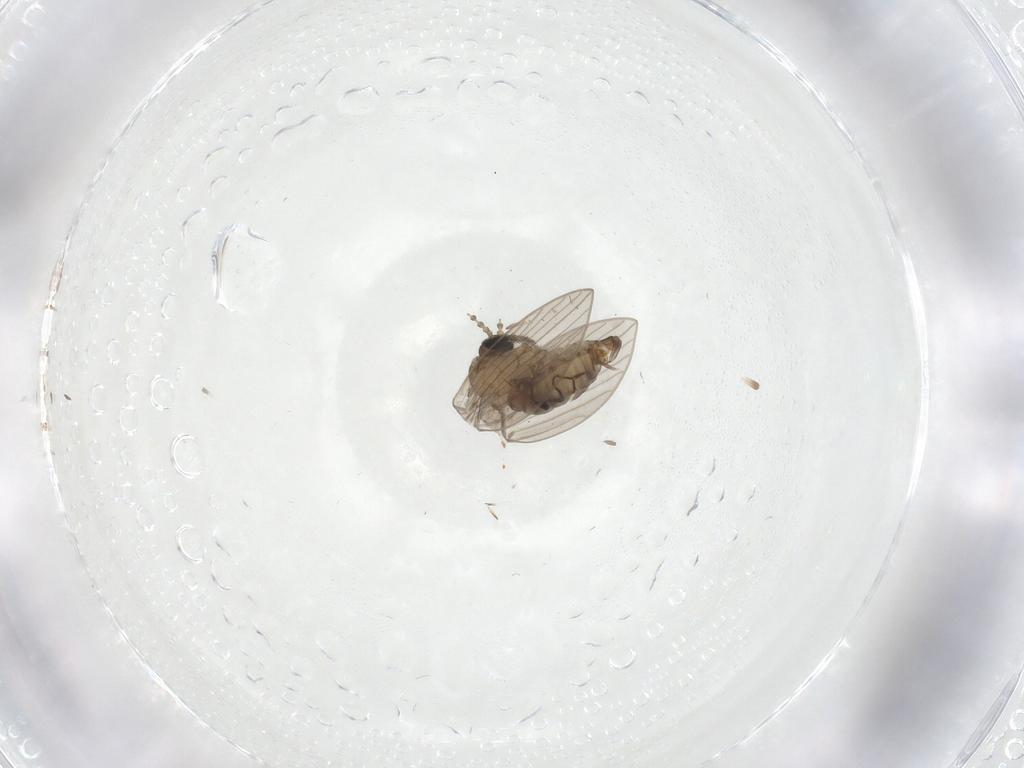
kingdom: Animalia
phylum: Arthropoda
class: Insecta
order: Diptera
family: Psychodidae
